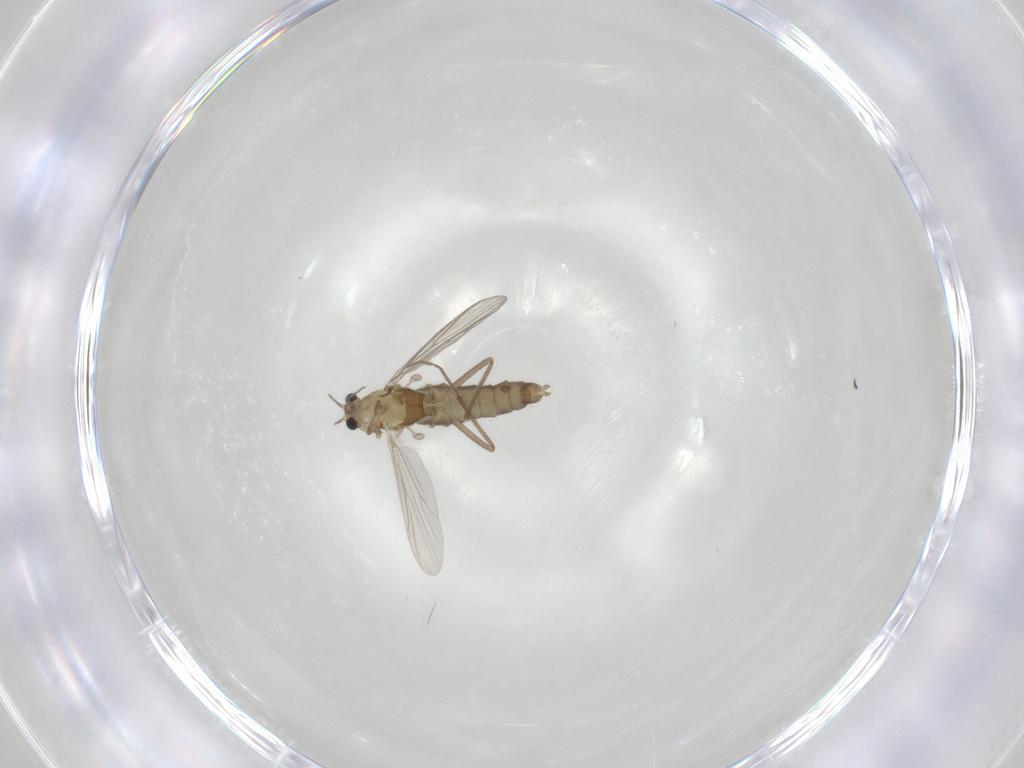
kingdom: Animalia
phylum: Arthropoda
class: Insecta
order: Diptera
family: Chironomidae
